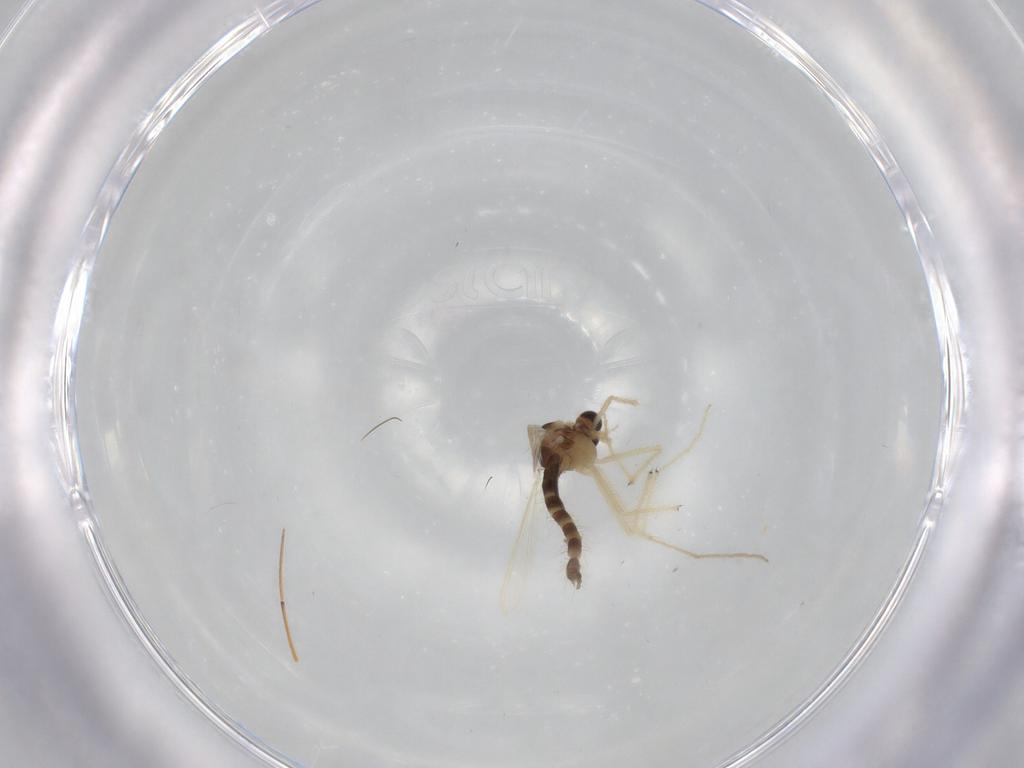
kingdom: Animalia
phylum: Arthropoda
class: Insecta
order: Diptera
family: Chironomidae
